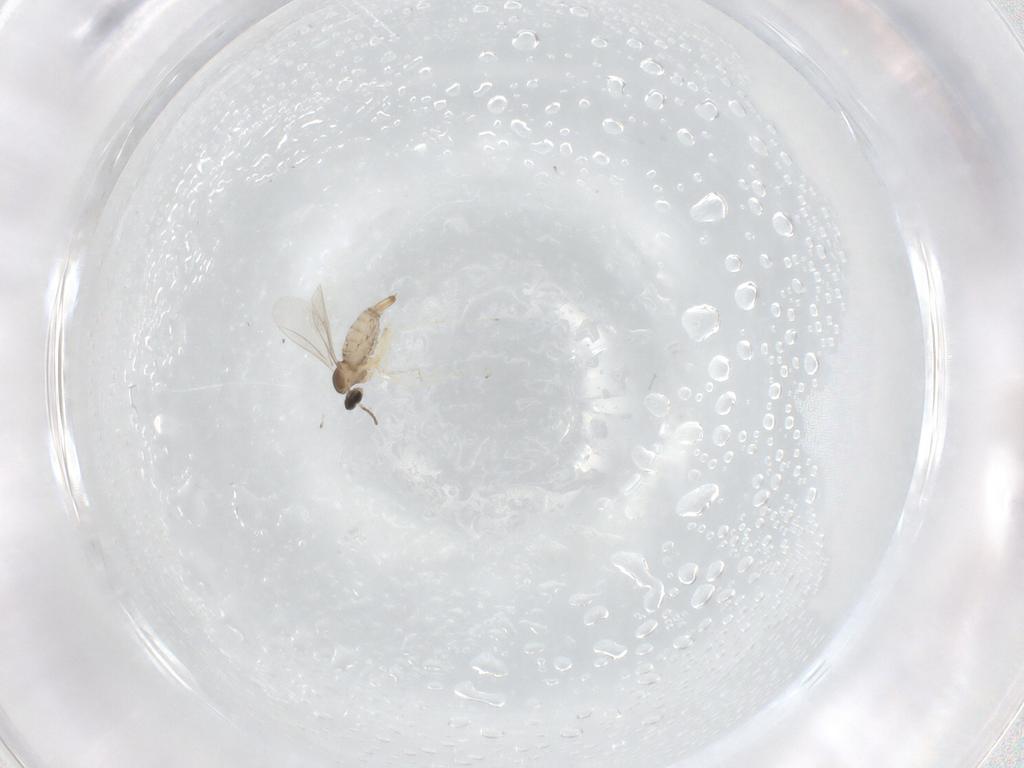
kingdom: Animalia
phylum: Arthropoda
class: Insecta
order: Diptera
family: Cecidomyiidae
